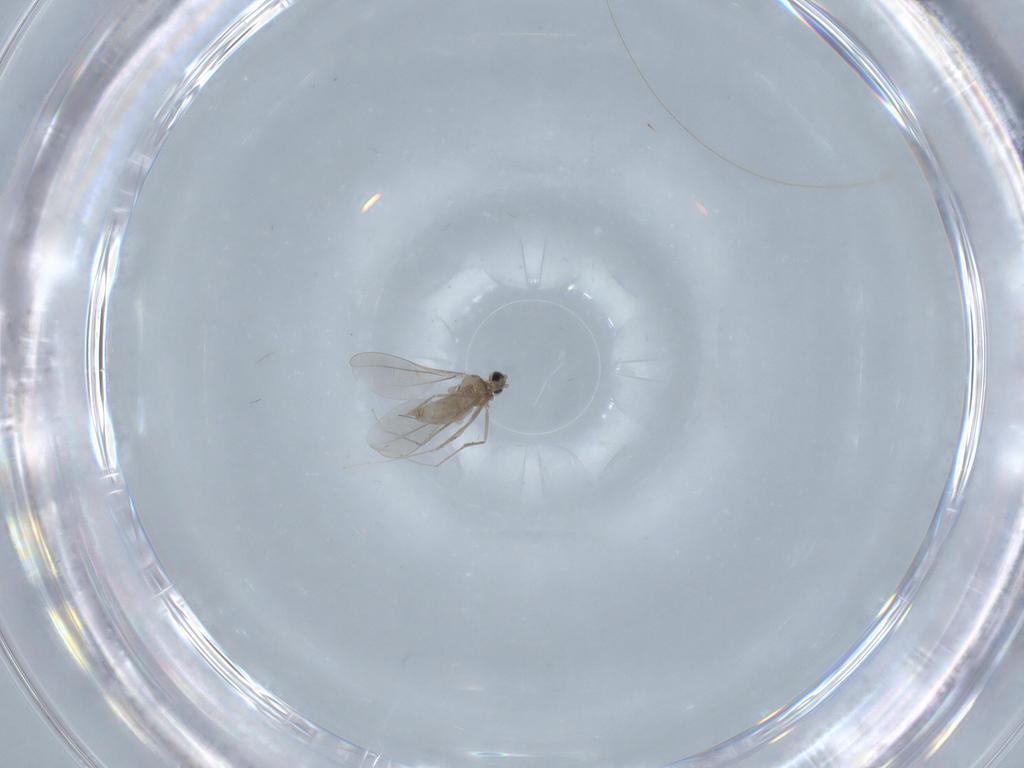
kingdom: Animalia
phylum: Arthropoda
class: Insecta
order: Diptera
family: Cecidomyiidae
